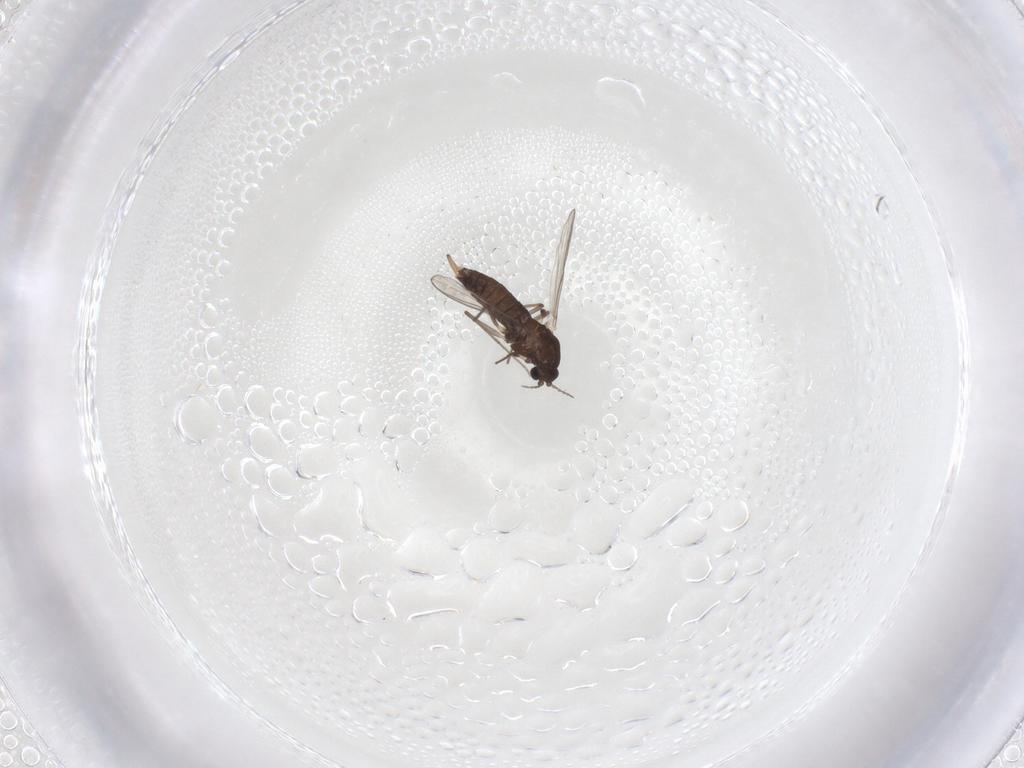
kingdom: Animalia
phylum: Arthropoda
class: Insecta
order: Diptera
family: Chironomidae
